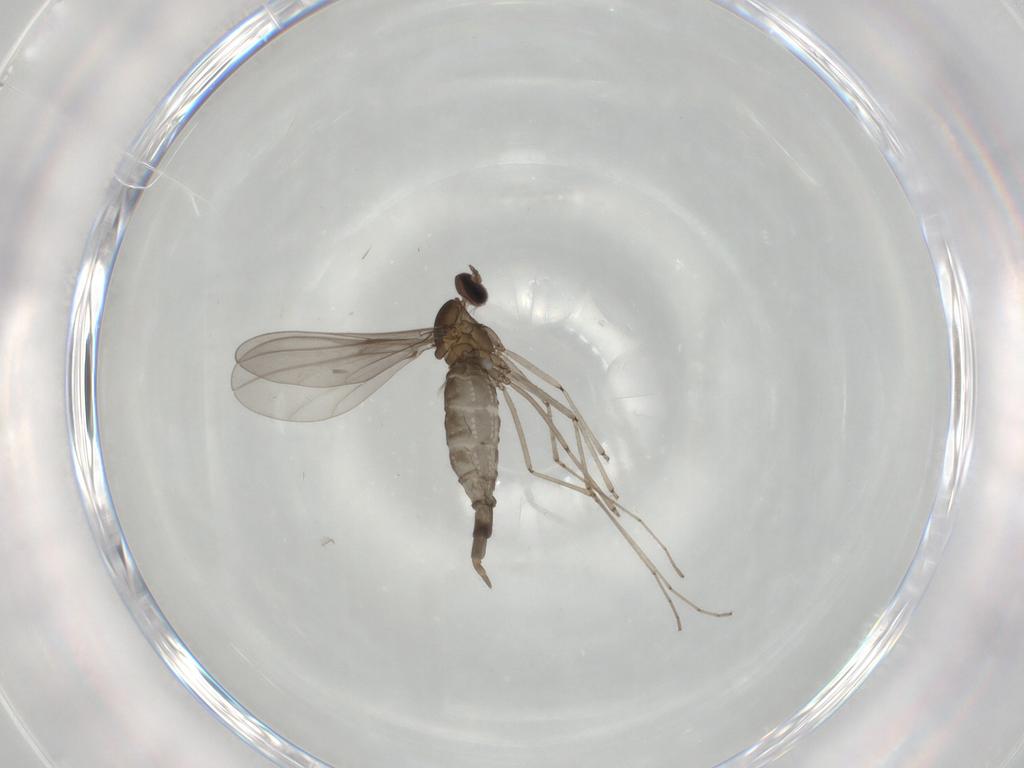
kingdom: Animalia
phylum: Arthropoda
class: Insecta
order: Diptera
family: Cecidomyiidae
